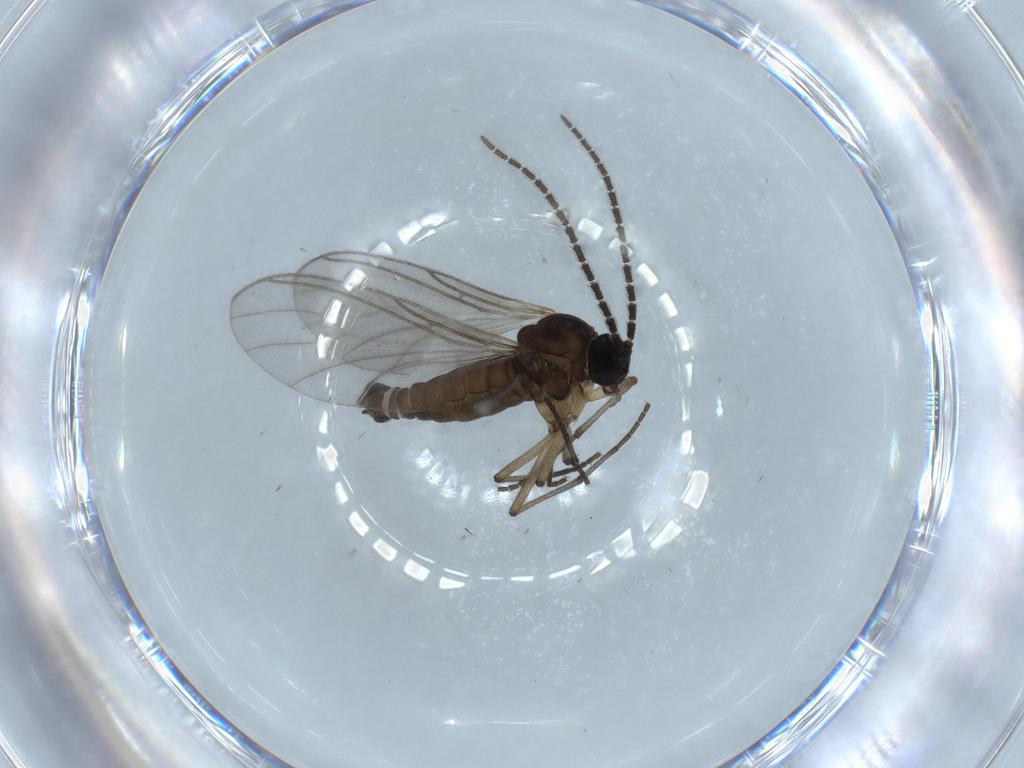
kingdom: Animalia
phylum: Arthropoda
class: Insecta
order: Diptera
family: Sciaridae
